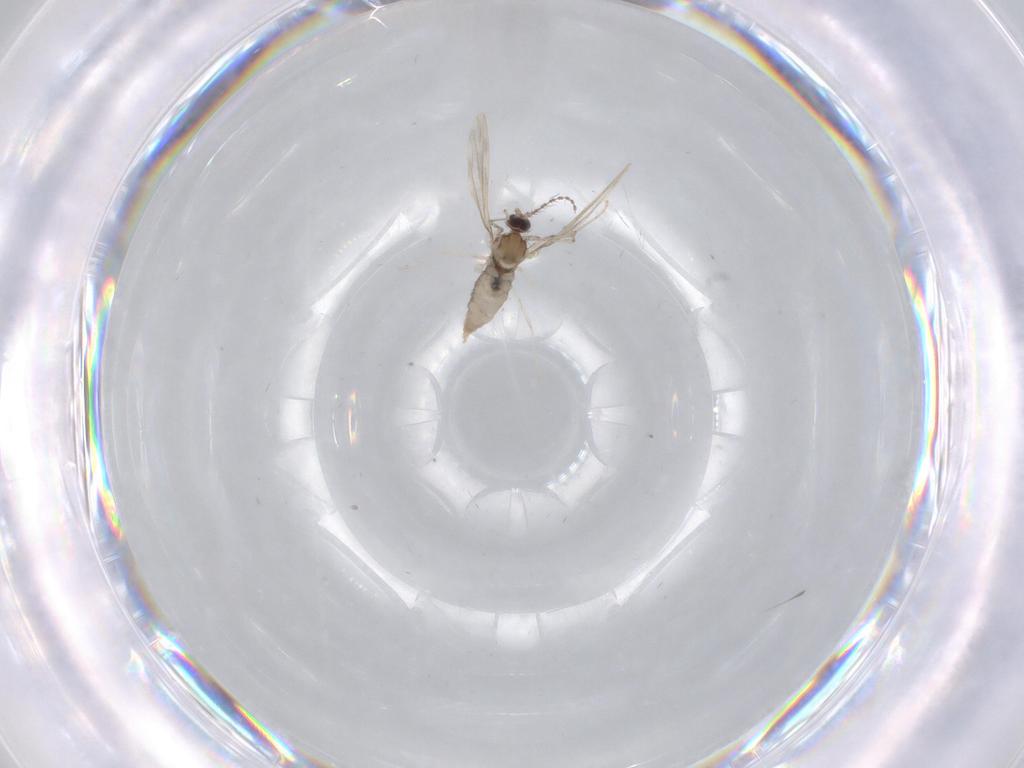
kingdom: Animalia
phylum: Arthropoda
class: Insecta
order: Diptera
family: Cecidomyiidae
